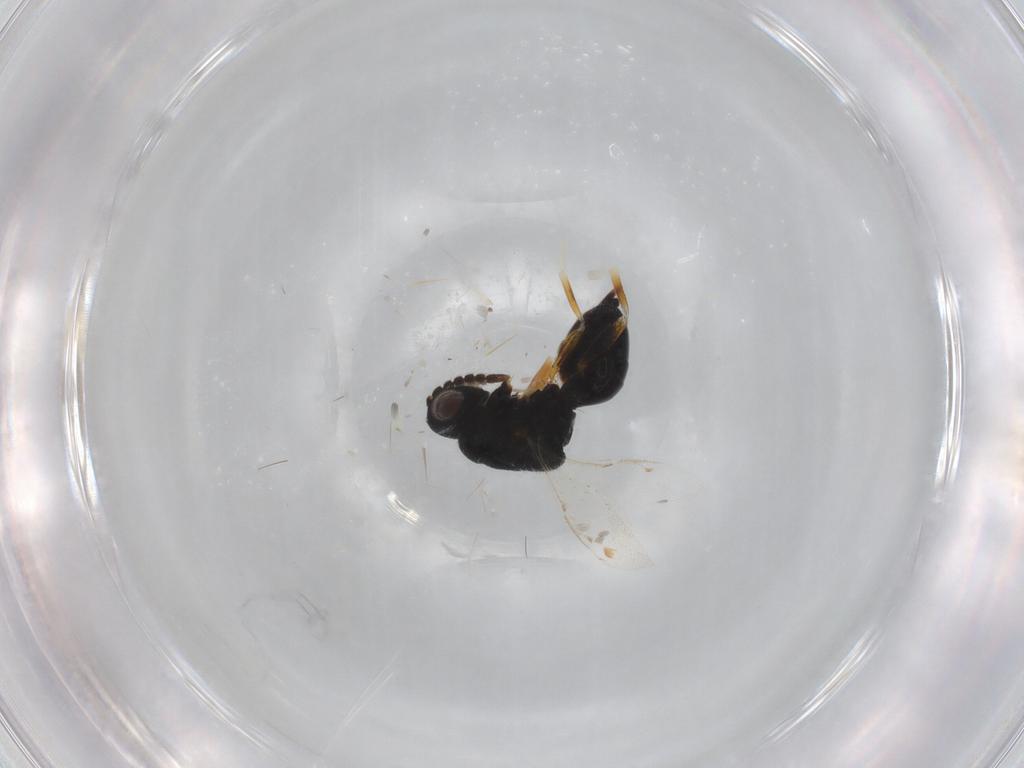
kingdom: Animalia
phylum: Arthropoda
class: Insecta
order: Hymenoptera
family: Eurytomidae
